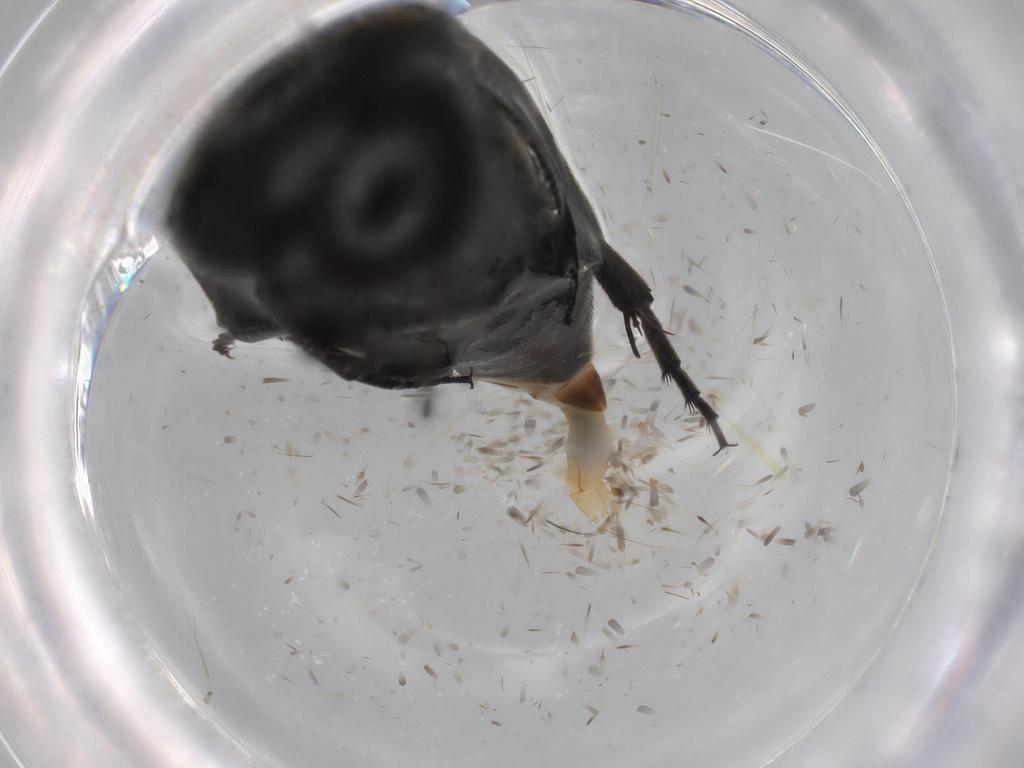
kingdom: Animalia
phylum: Arthropoda
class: Insecta
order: Coleoptera
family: Mordellidae
